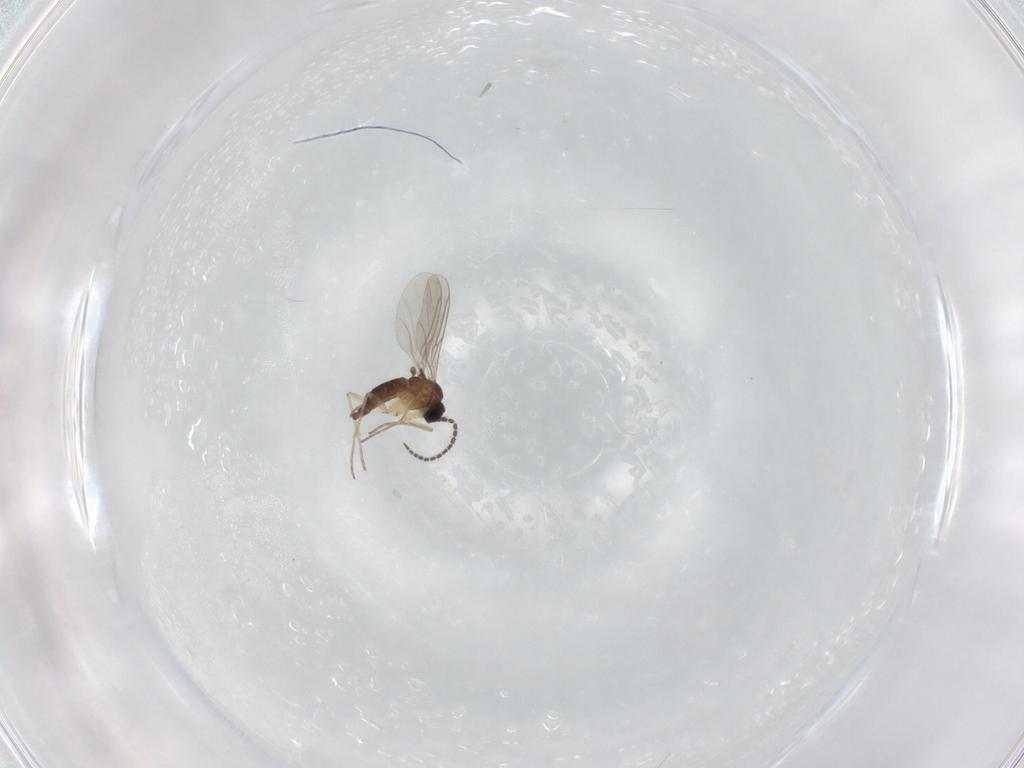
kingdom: Animalia
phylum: Arthropoda
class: Insecta
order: Diptera
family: Sciaridae
